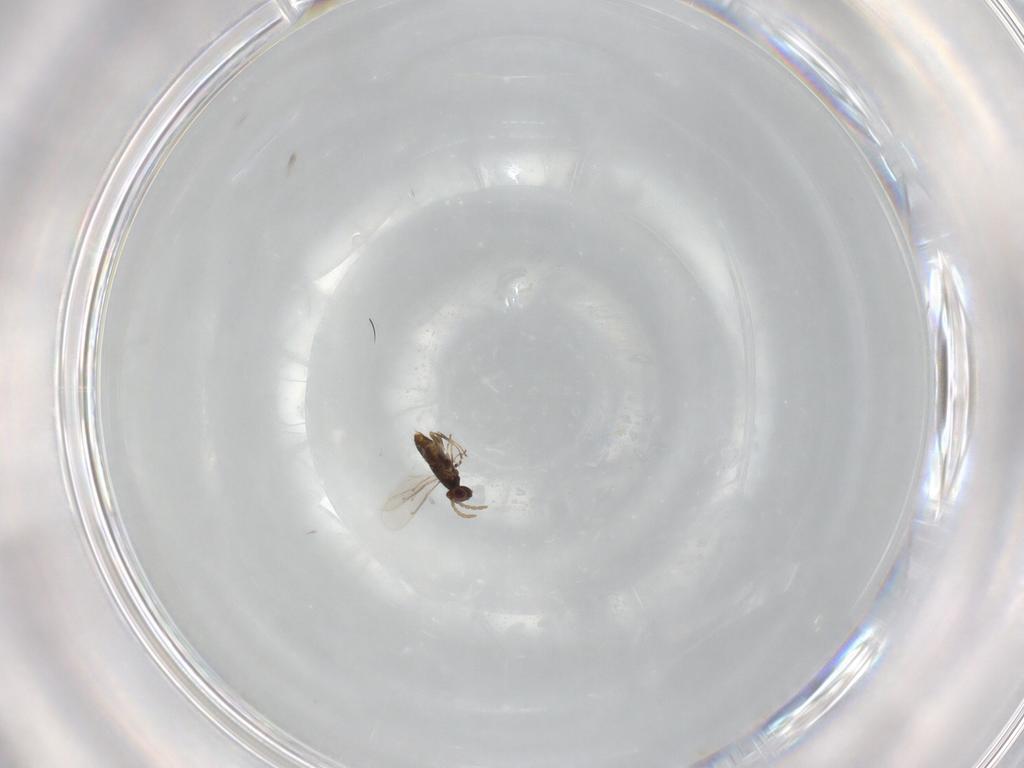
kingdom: Animalia
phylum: Arthropoda
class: Insecta
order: Hymenoptera
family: Aphelinidae
